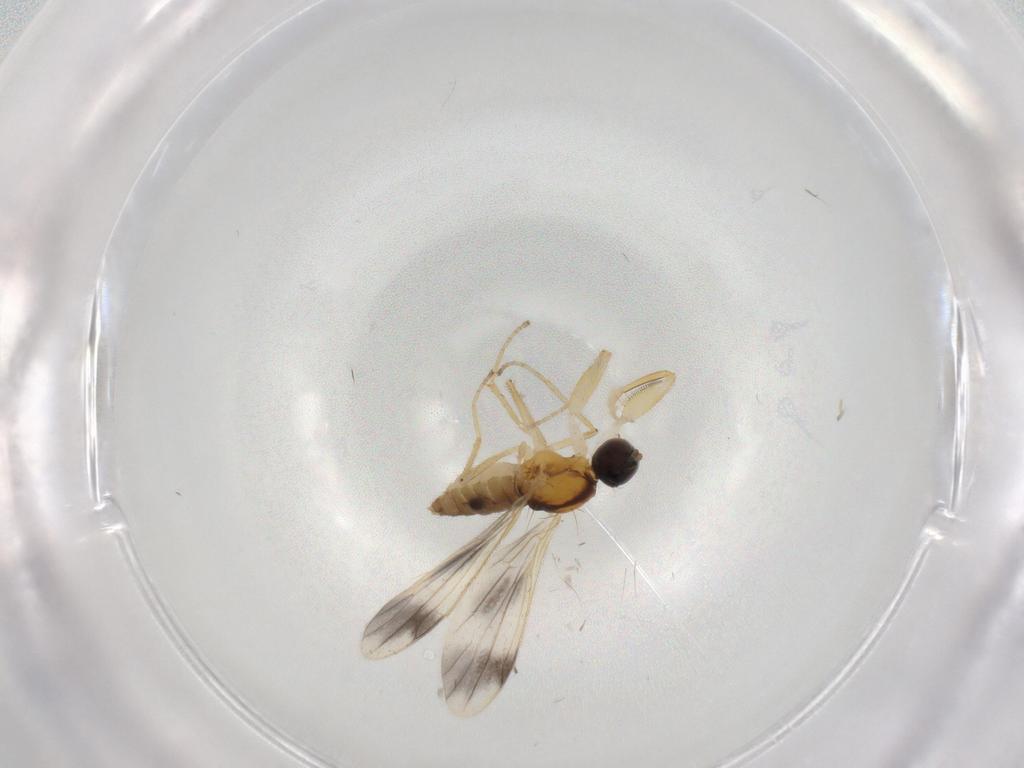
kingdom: Animalia
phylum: Arthropoda
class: Insecta
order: Diptera
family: Empididae
